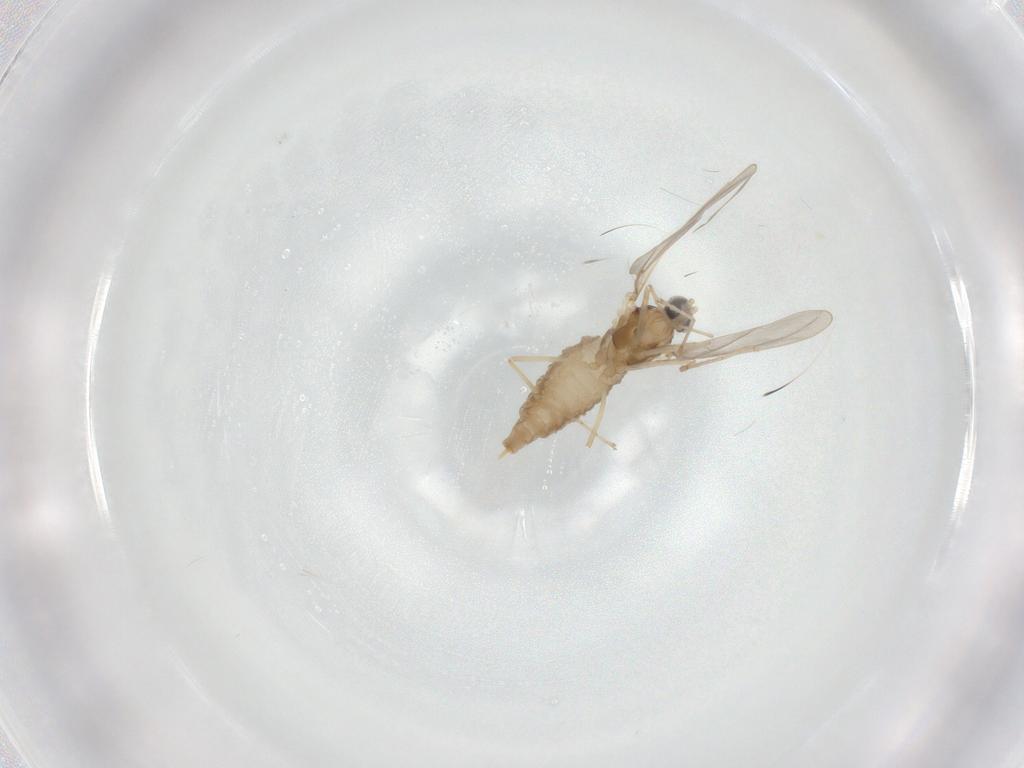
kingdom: Animalia
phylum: Arthropoda
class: Insecta
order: Diptera
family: Cecidomyiidae
